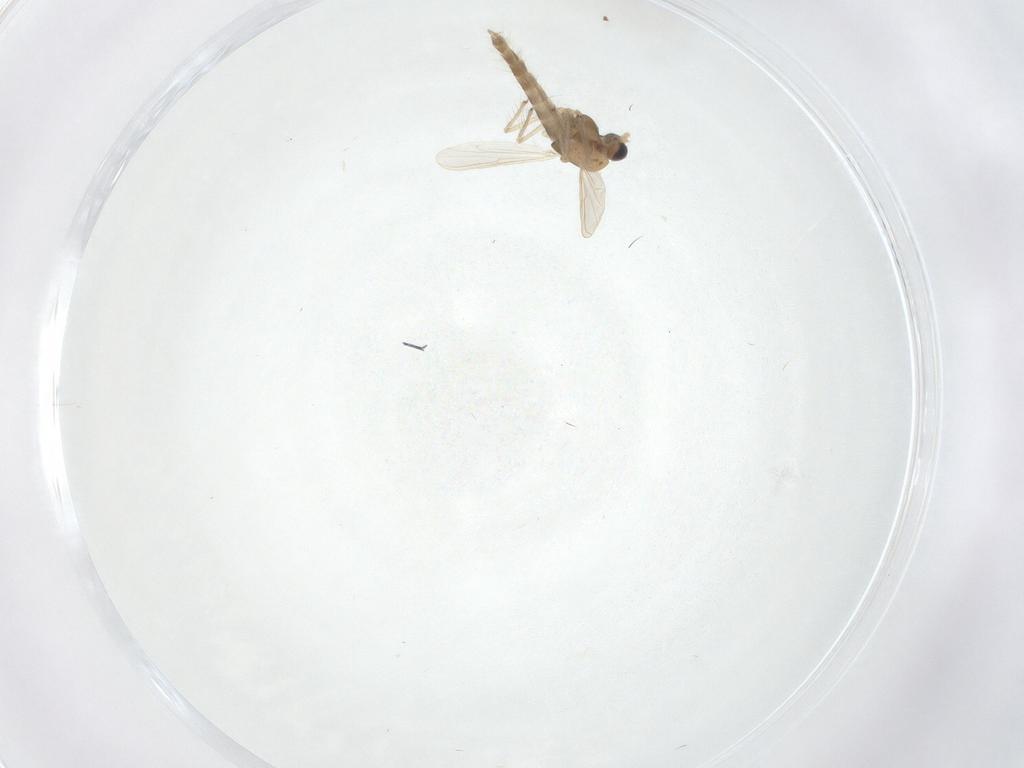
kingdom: Animalia
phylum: Arthropoda
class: Insecta
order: Diptera
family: Chironomidae
